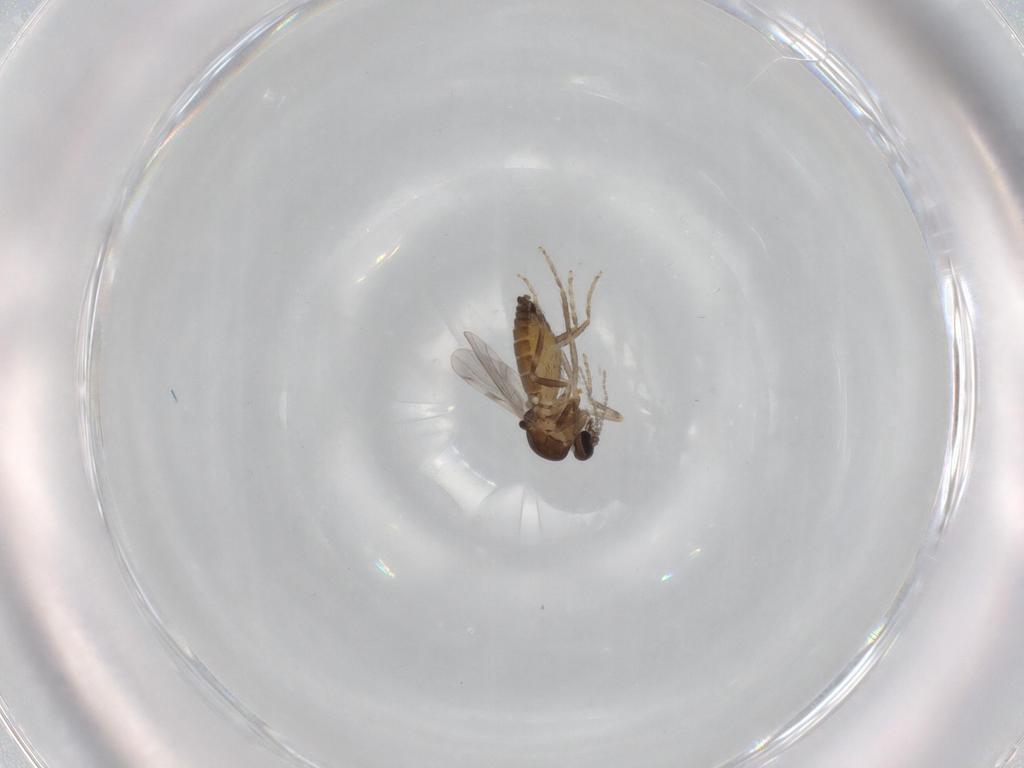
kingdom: Animalia
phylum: Arthropoda
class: Insecta
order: Diptera
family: Ceratopogonidae
